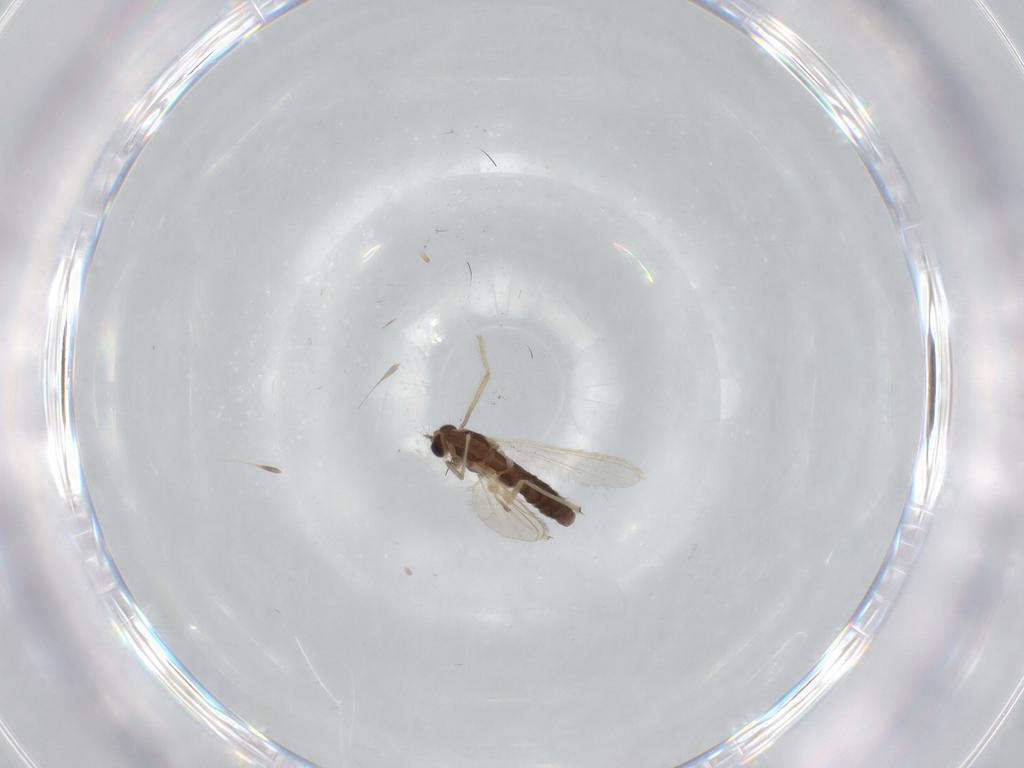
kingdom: Animalia
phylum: Arthropoda
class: Insecta
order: Diptera
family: Chironomidae
